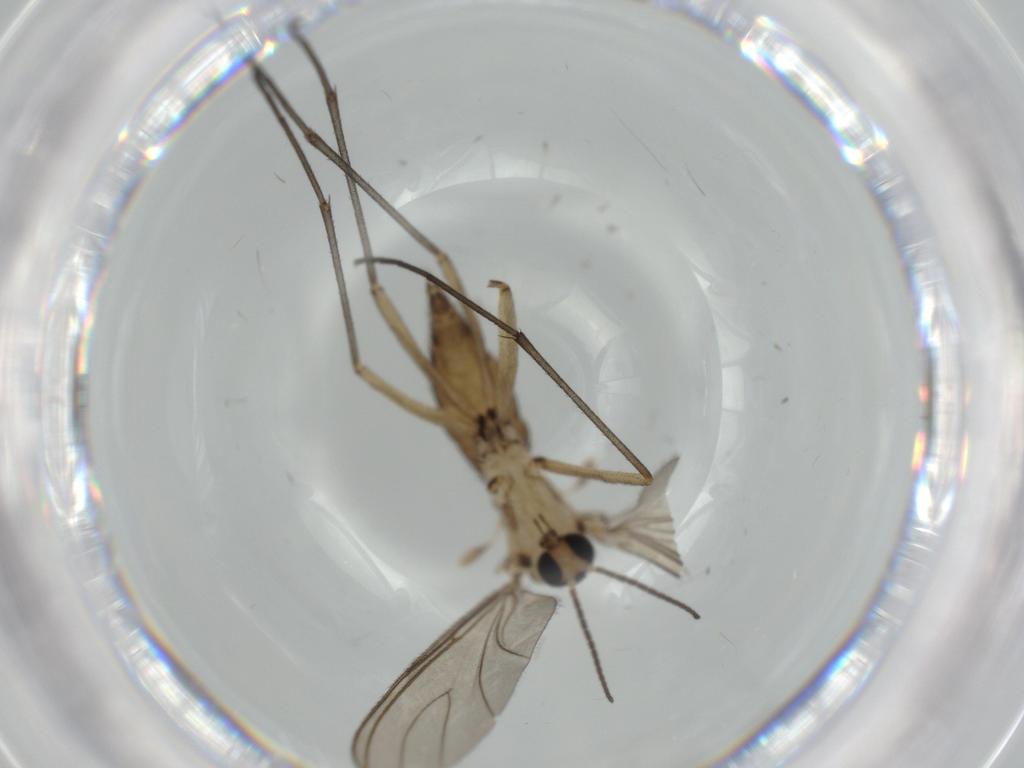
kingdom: Animalia
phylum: Arthropoda
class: Insecta
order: Diptera
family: Sciaridae
